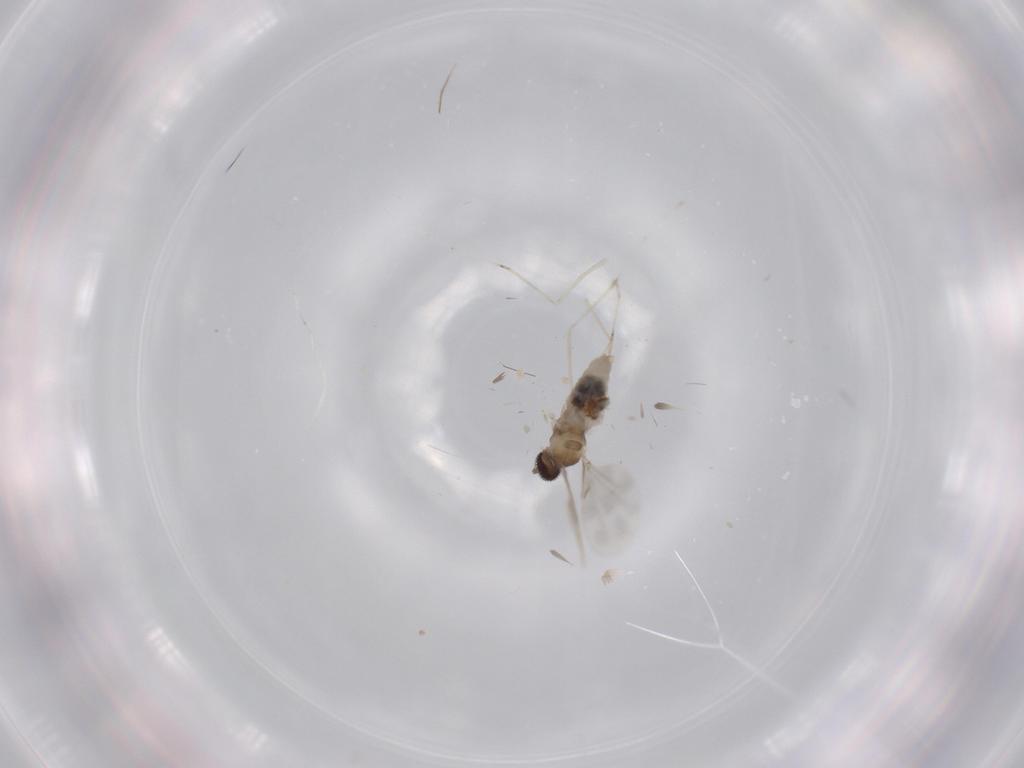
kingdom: Animalia
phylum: Arthropoda
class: Insecta
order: Diptera
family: Cecidomyiidae
